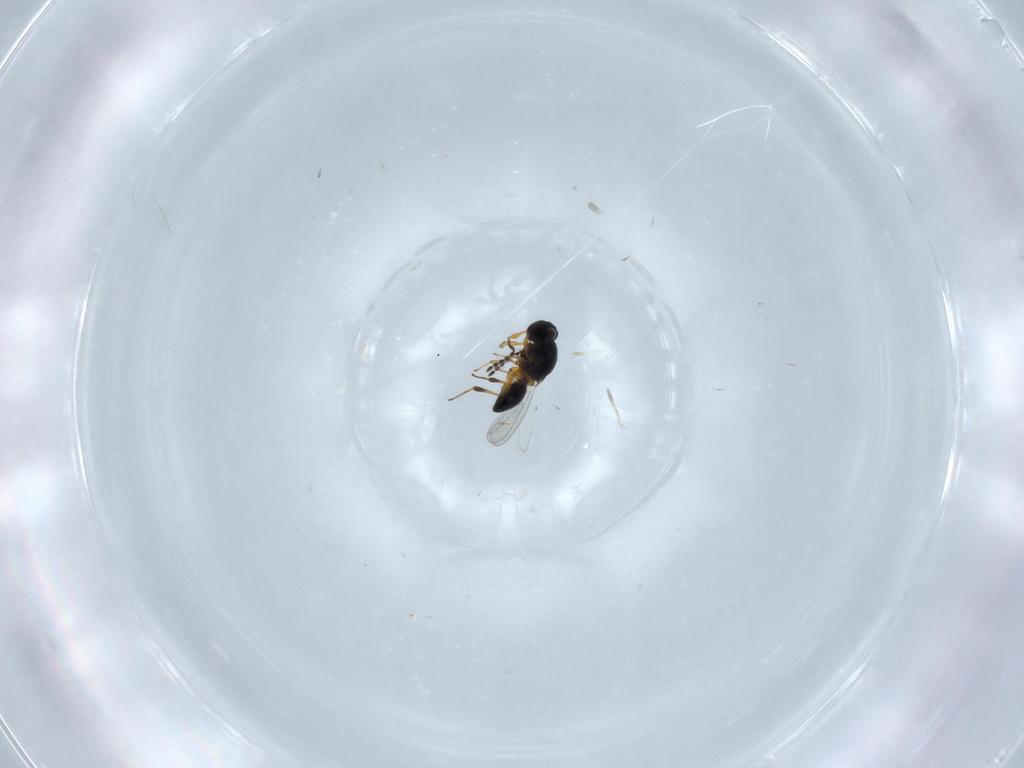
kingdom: Animalia
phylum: Arthropoda
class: Insecta
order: Hymenoptera
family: Platygastridae
